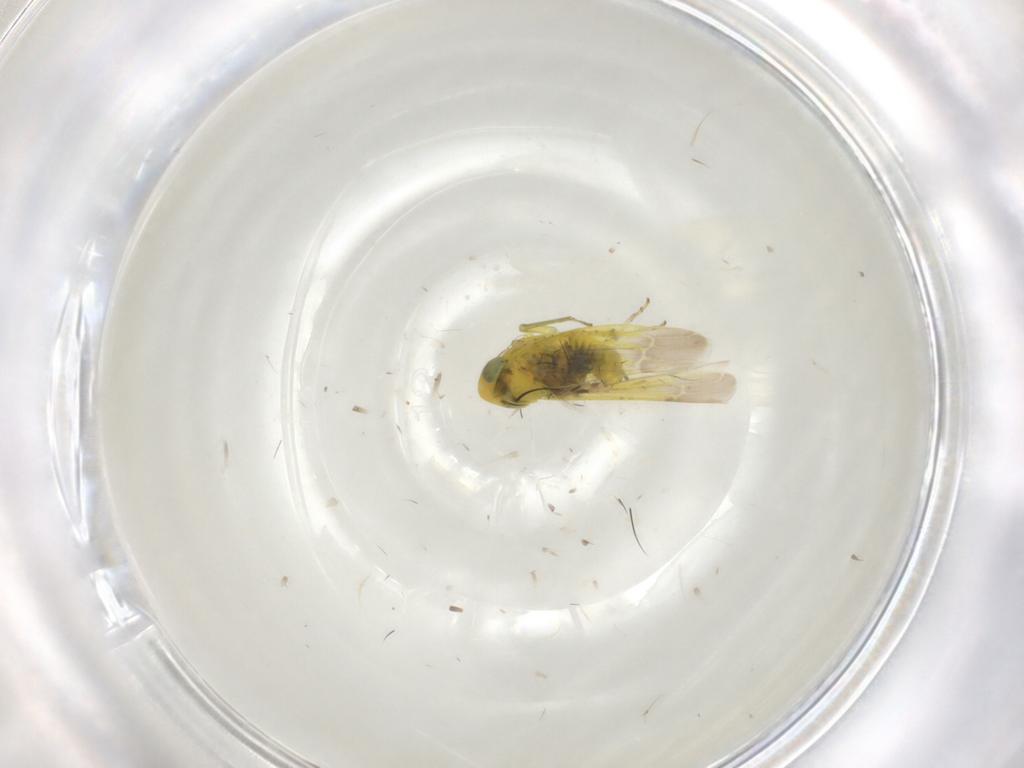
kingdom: Animalia
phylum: Arthropoda
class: Insecta
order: Hemiptera
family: Cicadellidae
